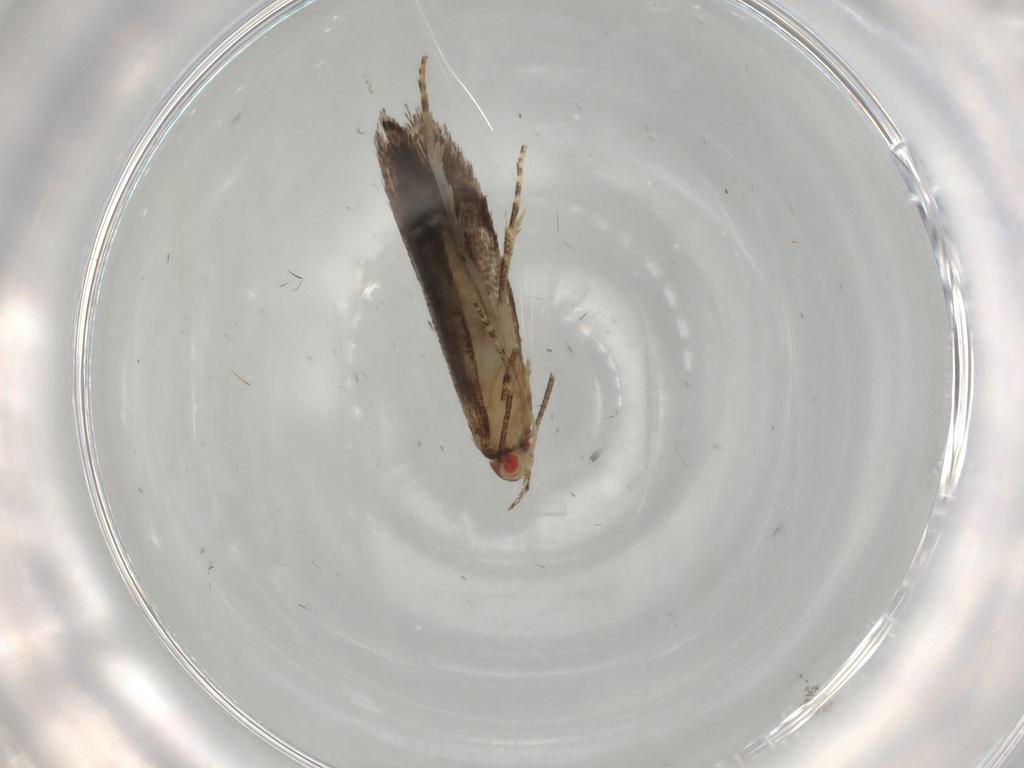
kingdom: Animalia
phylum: Arthropoda
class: Insecta
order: Lepidoptera
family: Gelechiidae
